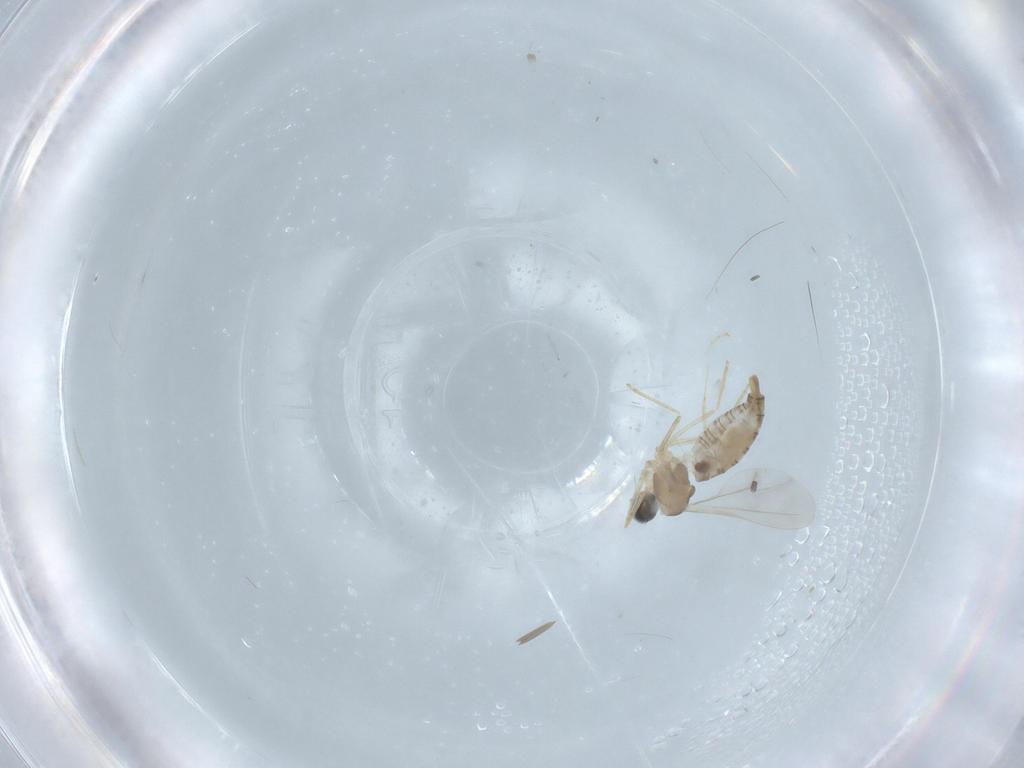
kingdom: Animalia
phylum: Arthropoda
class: Insecta
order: Diptera
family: Cecidomyiidae
